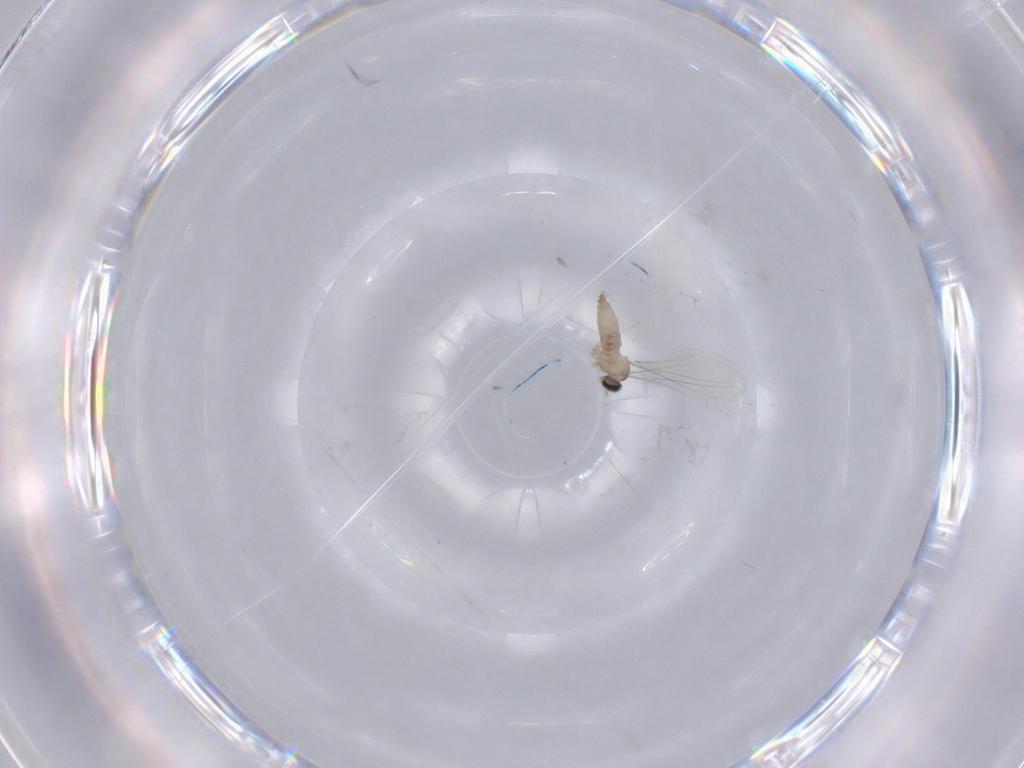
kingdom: Animalia
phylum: Arthropoda
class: Insecta
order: Diptera
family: Cecidomyiidae
